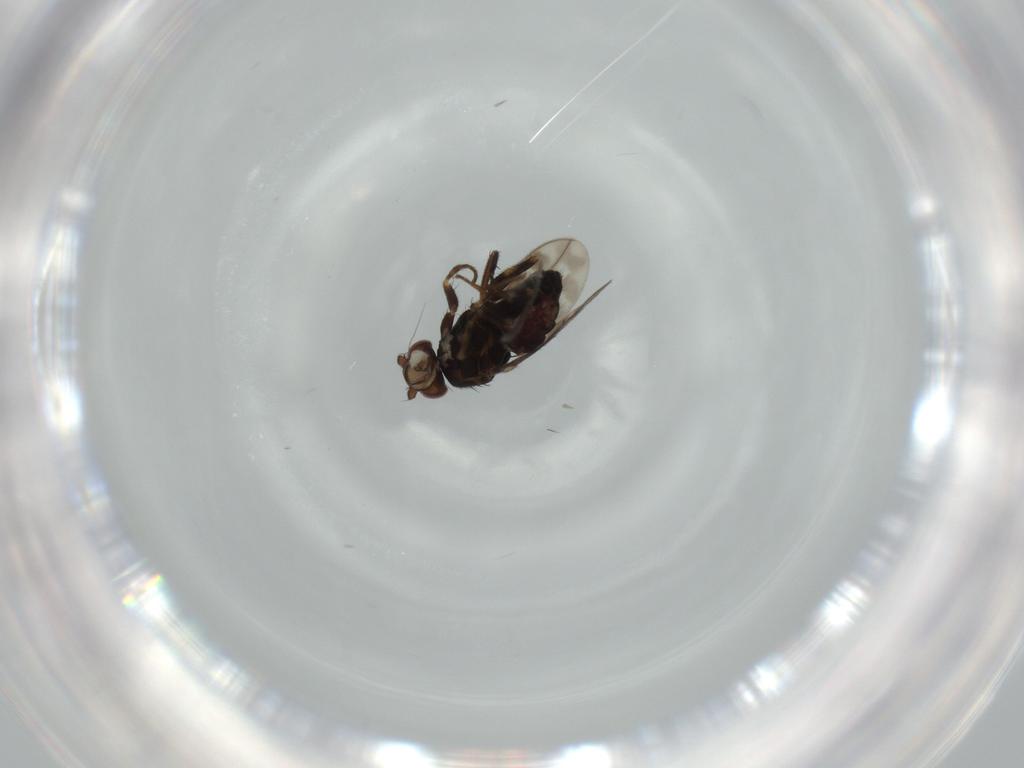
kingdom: Animalia
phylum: Arthropoda
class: Insecta
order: Diptera
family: Sphaeroceridae
